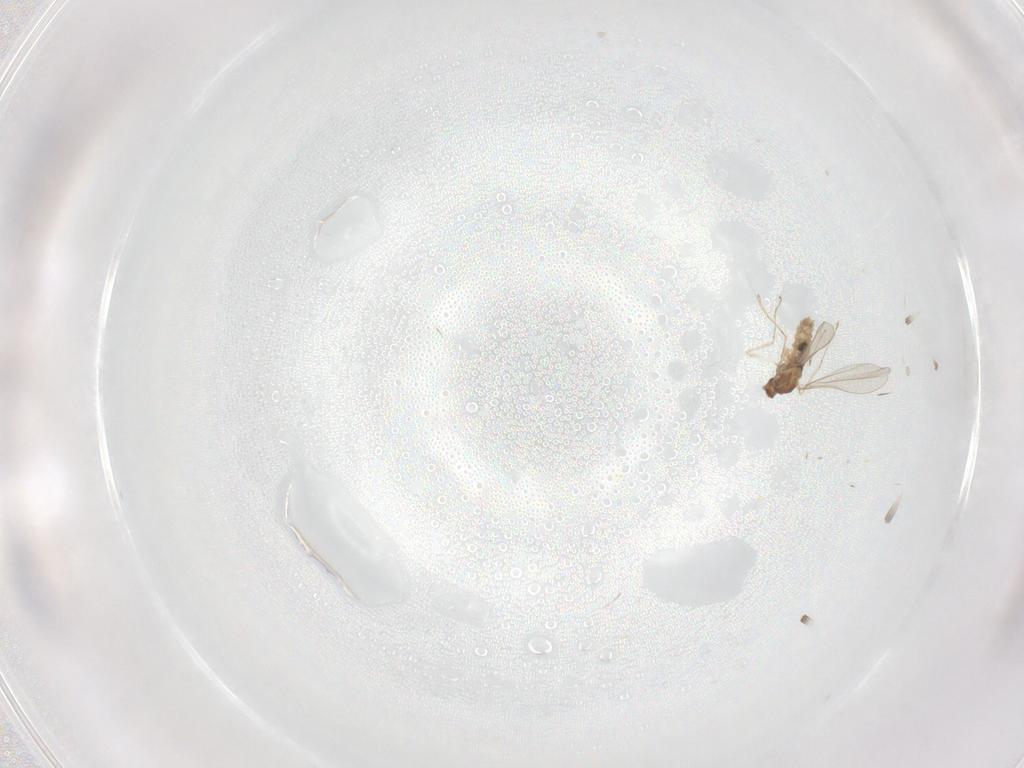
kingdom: Animalia
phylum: Arthropoda
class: Insecta
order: Diptera
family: Cecidomyiidae
